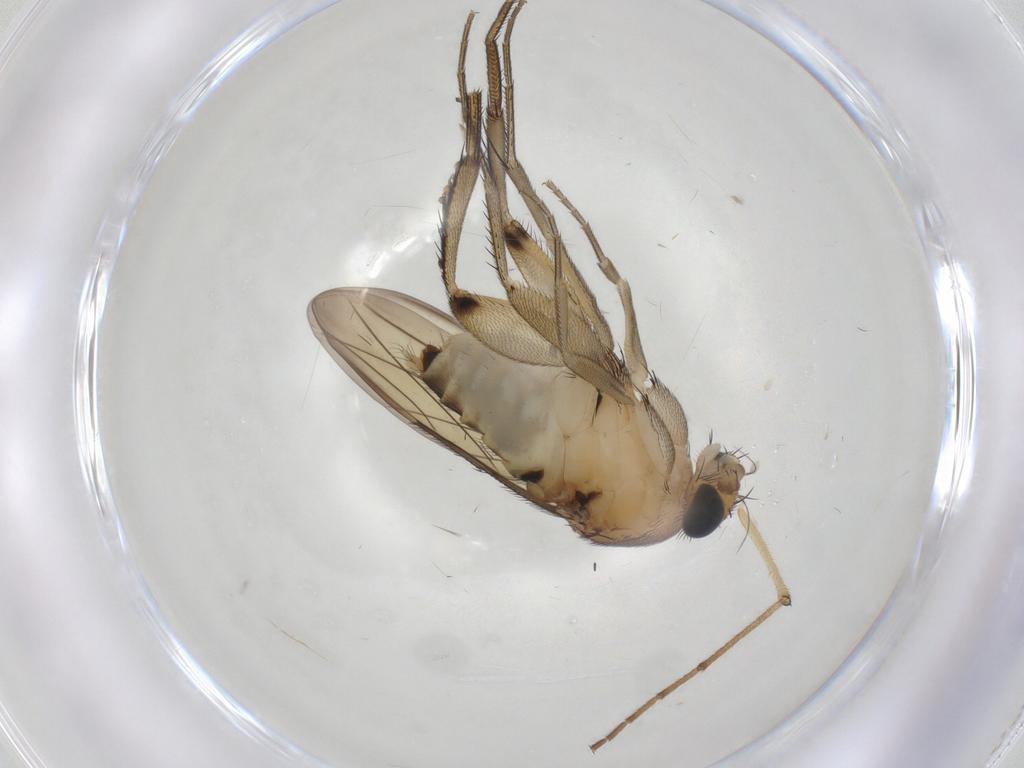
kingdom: Animalia
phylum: Arthropoda
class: Insecta
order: Diptera
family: Phoridae
